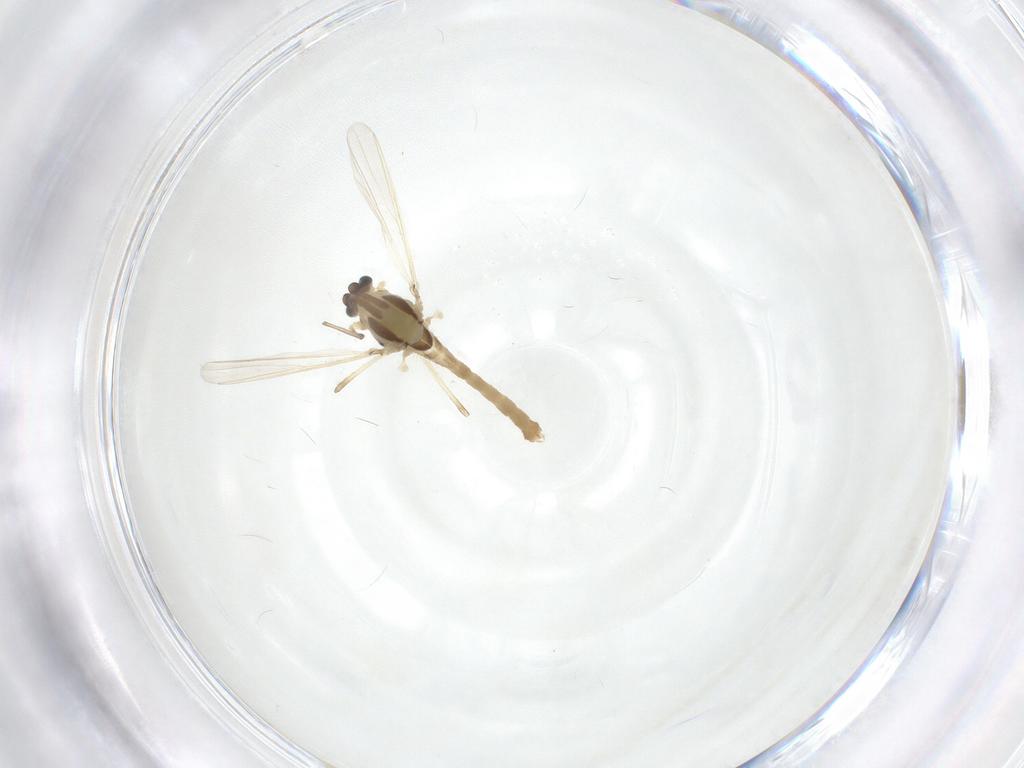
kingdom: Animalia
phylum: Arthropoda
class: Insecta
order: Diptera
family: Chironomidae
